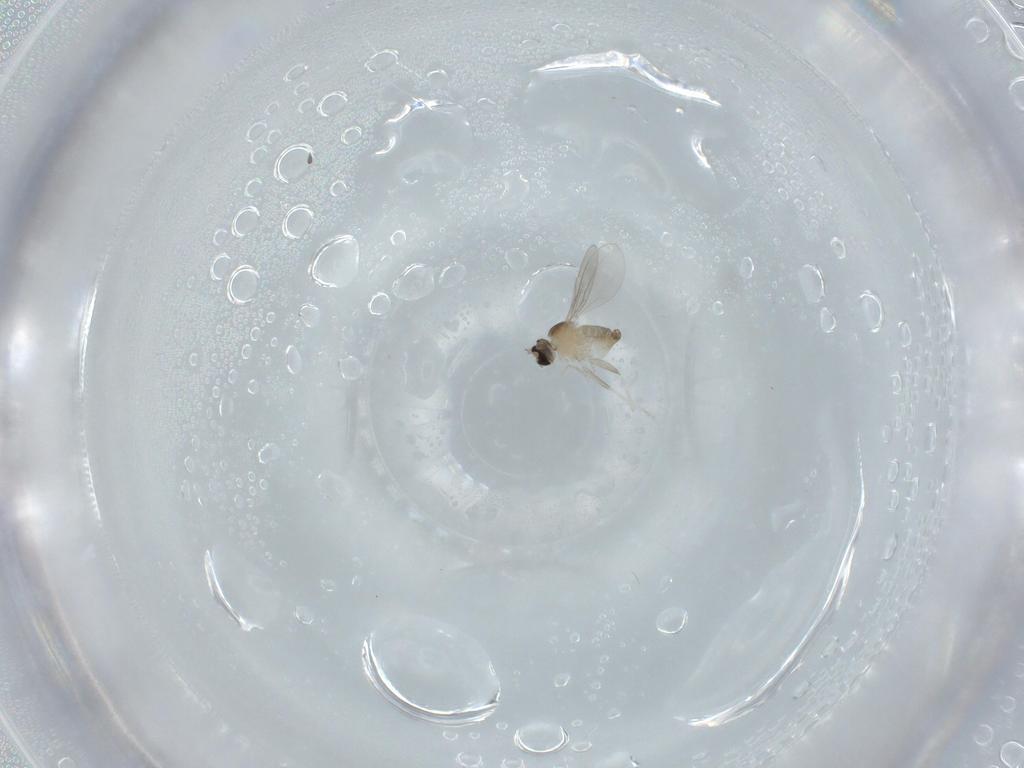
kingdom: Animalia
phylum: Arthropoda
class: Insecta
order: Diptera
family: Cecidomyiidae
